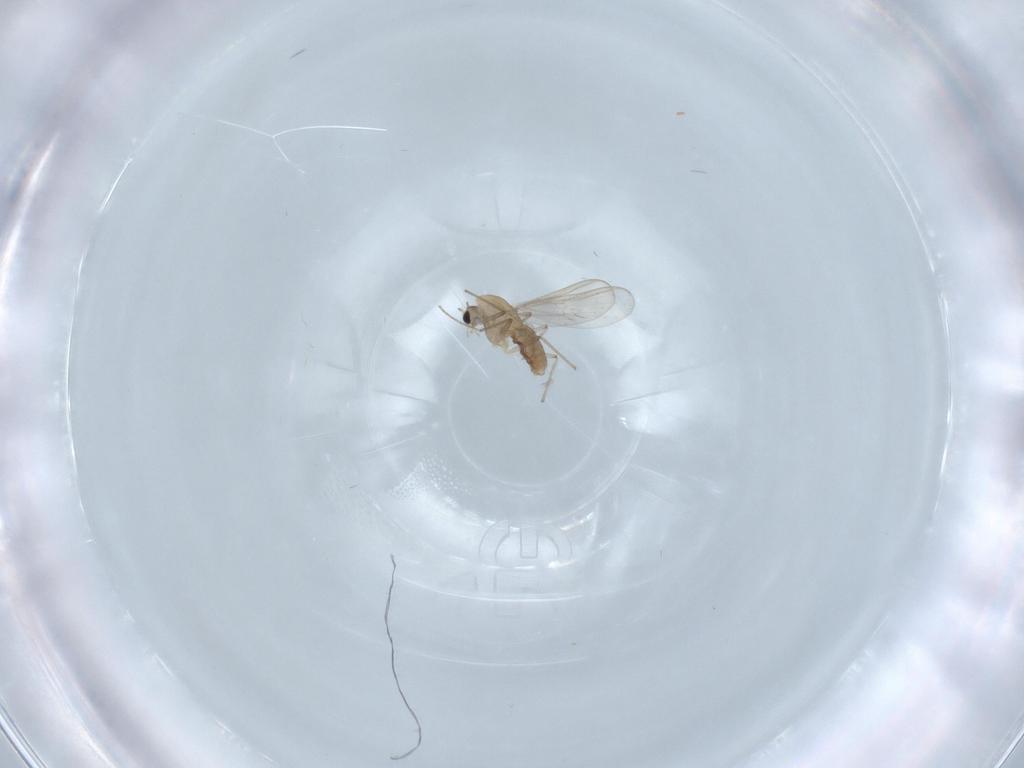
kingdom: Animalia
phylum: Arthropoda
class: Insecta
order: Diptera
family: Chironomidae
